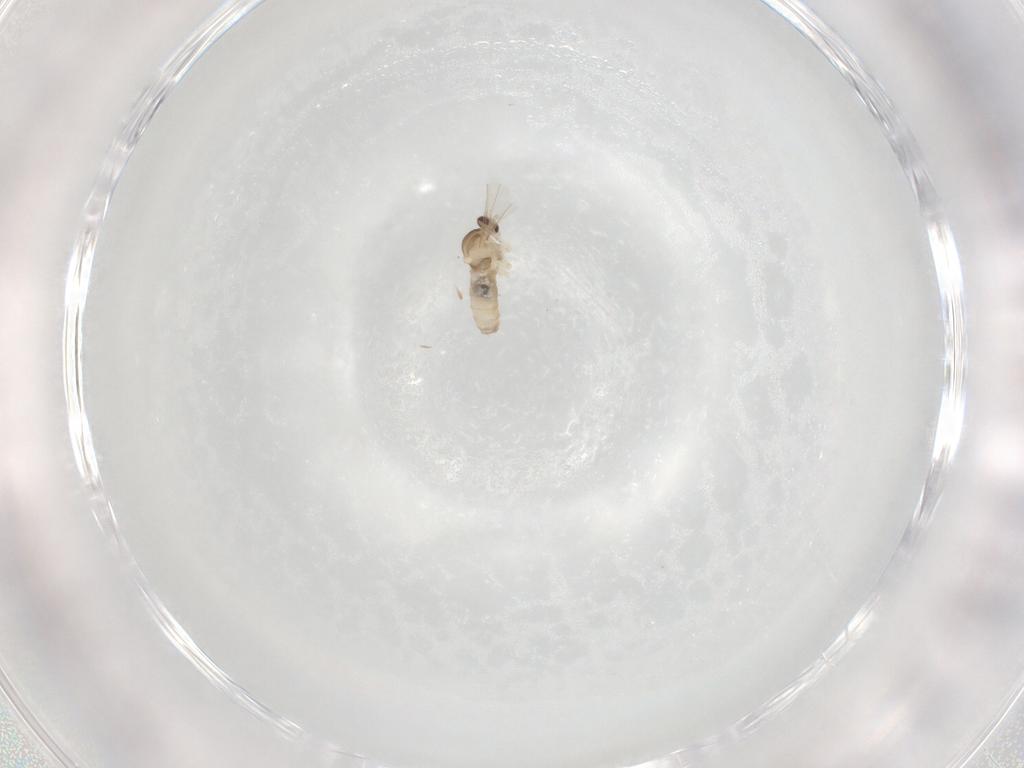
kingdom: Animalia
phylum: Arthropoda
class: Insecta
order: Diptera
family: Cecidomyiidae
